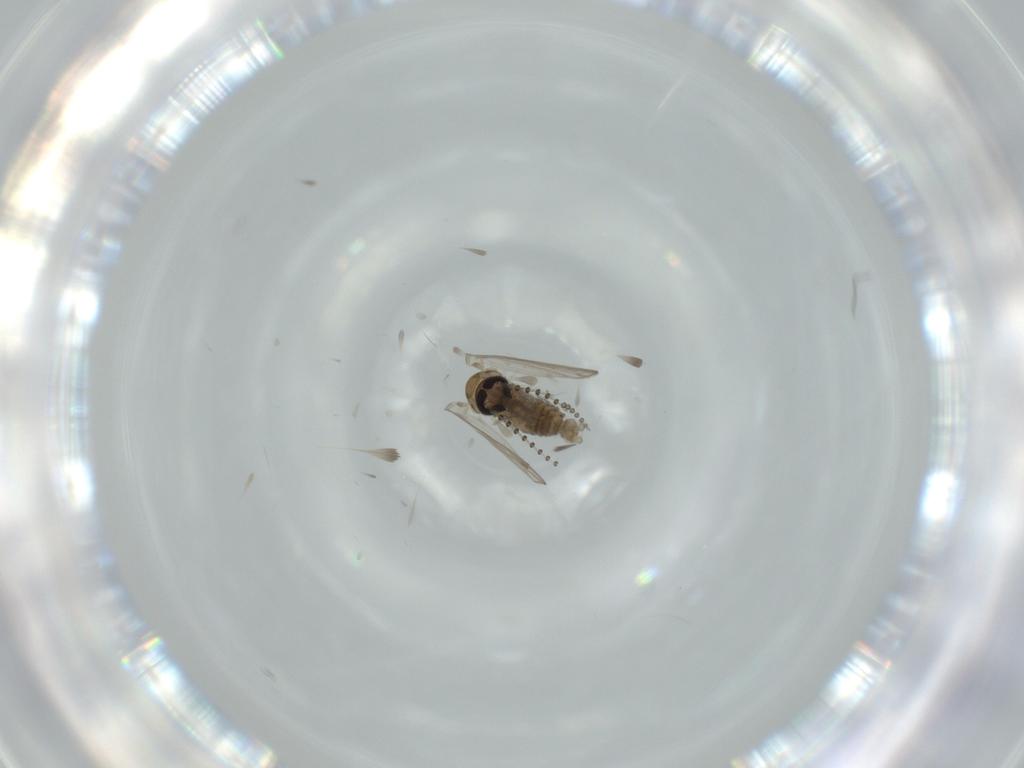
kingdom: Animalia
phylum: Arthropoda
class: Insecta
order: Diptera
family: Psychodidae
